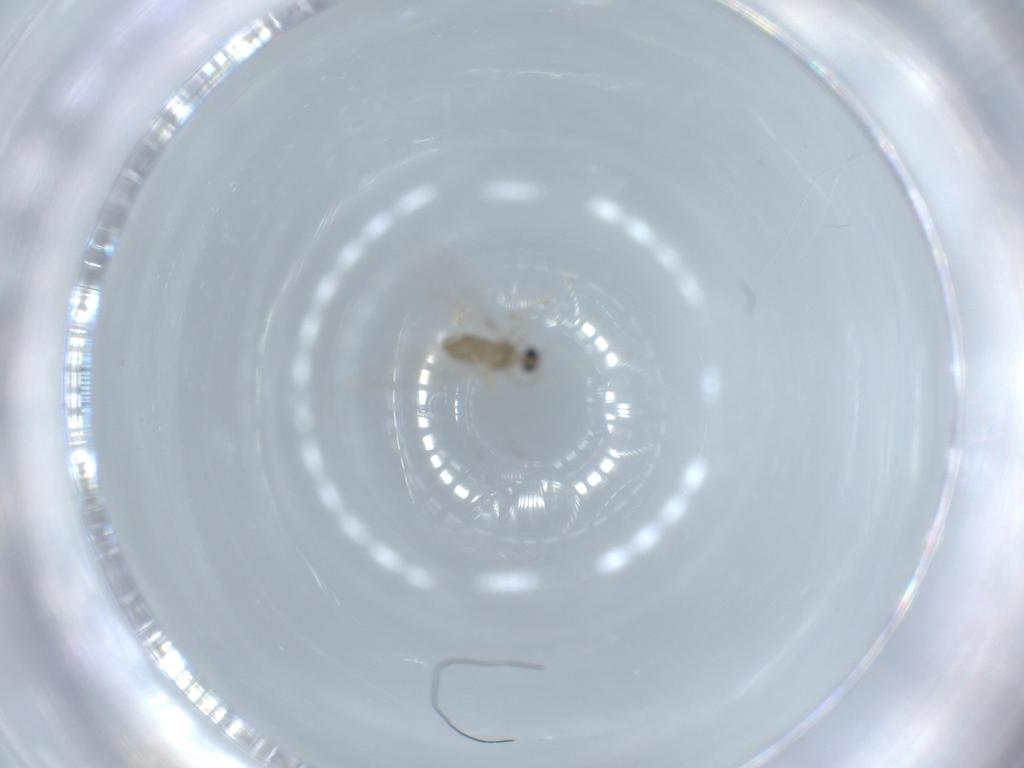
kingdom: Animalia
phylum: Arthropoda
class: Insecta
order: Diptera
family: Cecidomyiidae
